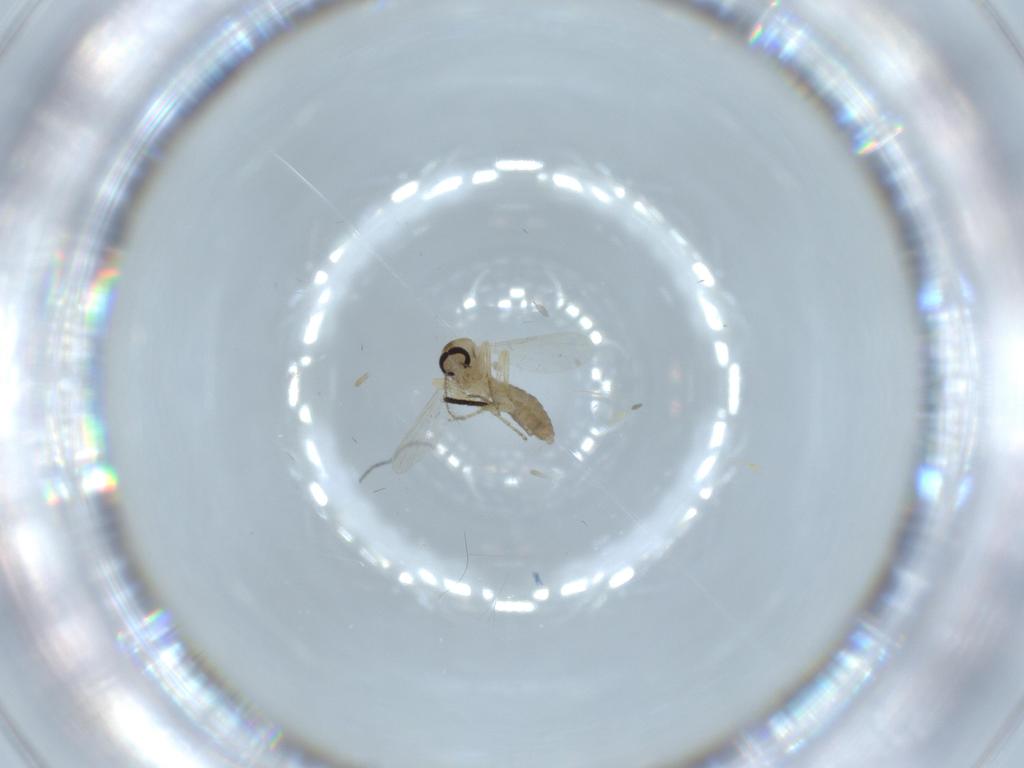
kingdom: Animalia
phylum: Arthropoda
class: Insecta
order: Diptera
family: Ceratopogonidae
